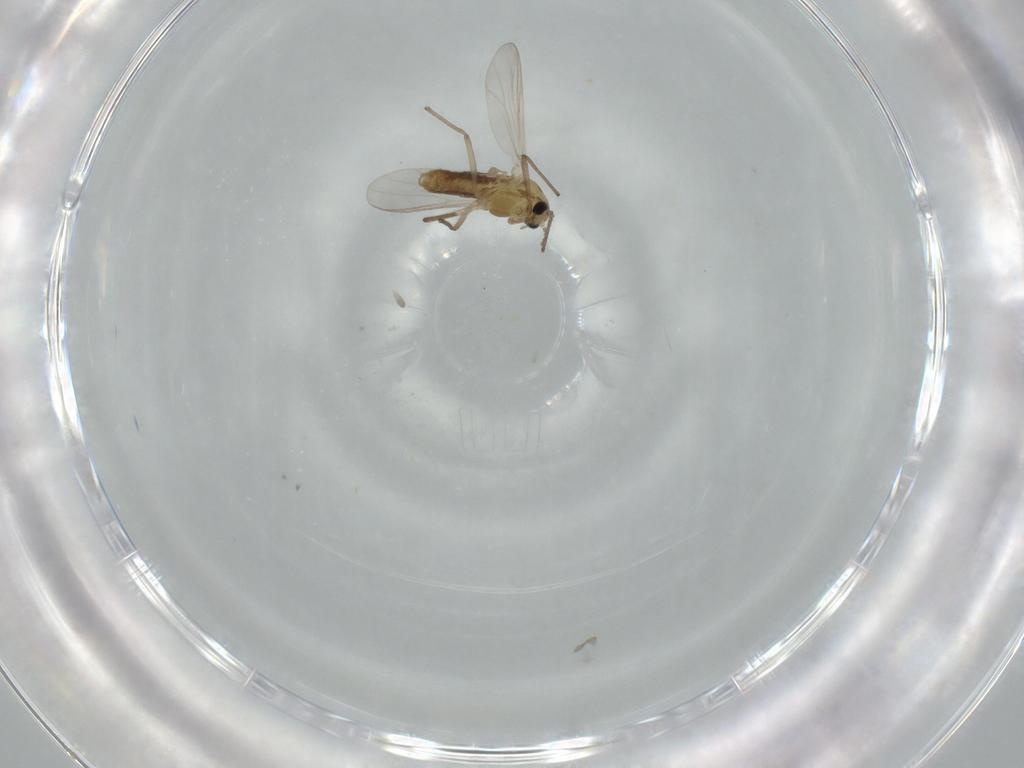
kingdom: Animalia
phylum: Arthropoda
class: Insecta
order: Diptera
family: Chironomidae
